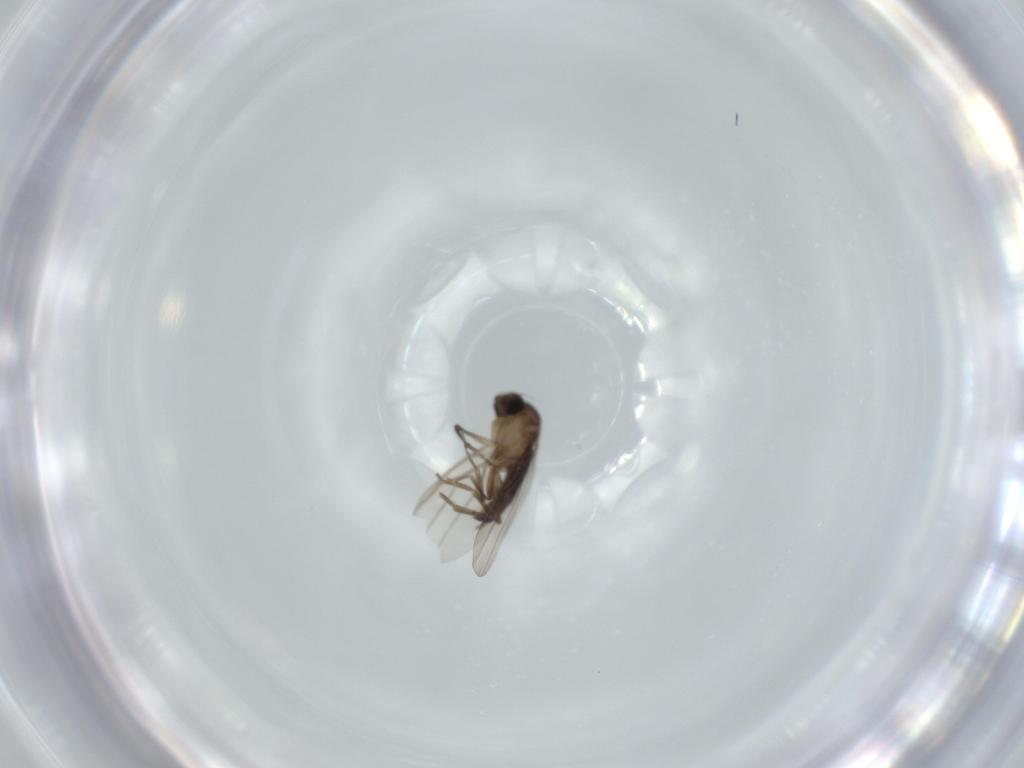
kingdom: Animalia
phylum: Arthropoda
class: Insecta
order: Diptera
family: Phoridae
